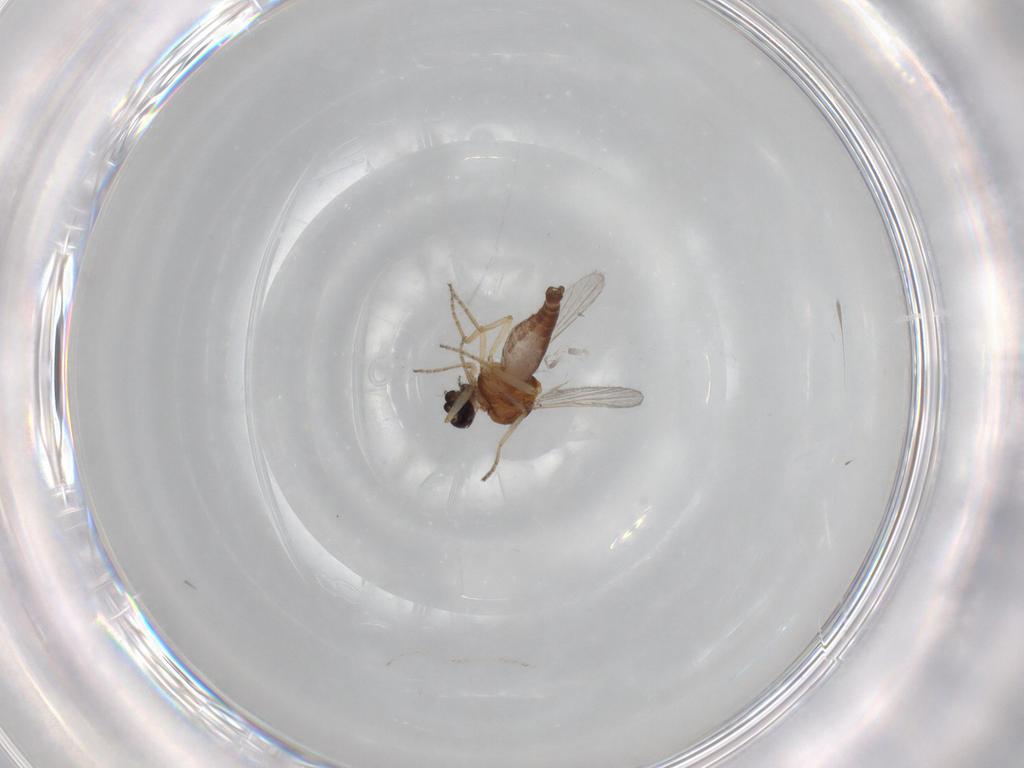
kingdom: Animalia
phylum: Arthropoda
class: Insecta
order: Diptera
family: Ceratopogonidae
